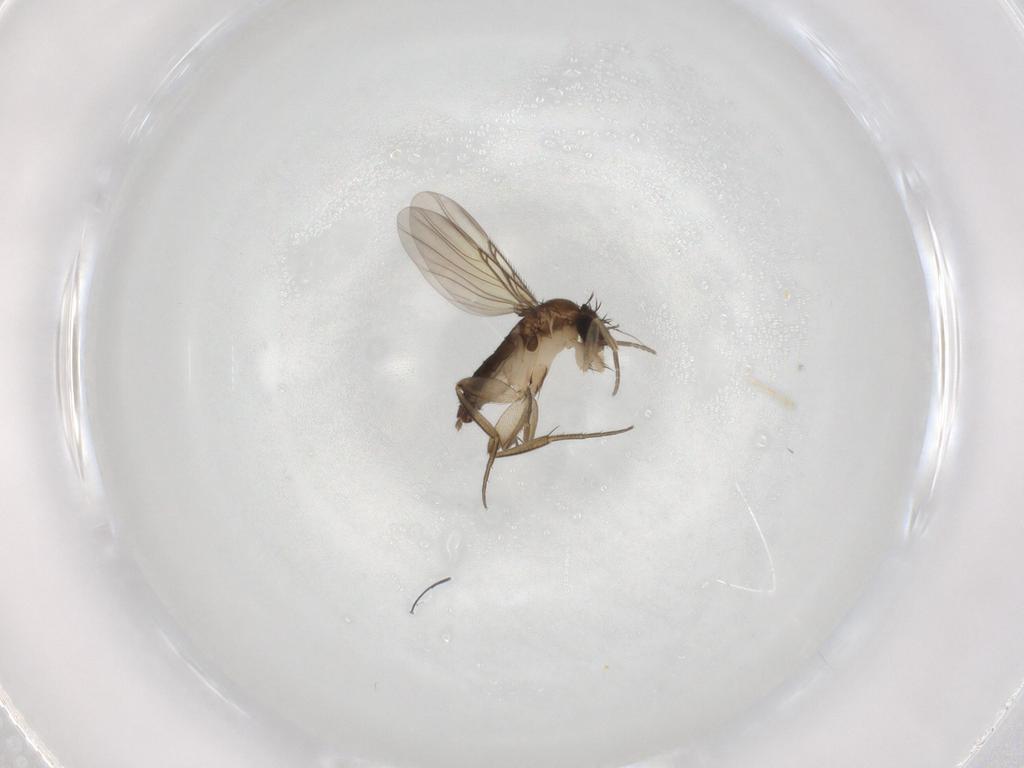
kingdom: Animalia
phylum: Arthropoda
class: Insecta
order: Diptera
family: Phoridae
